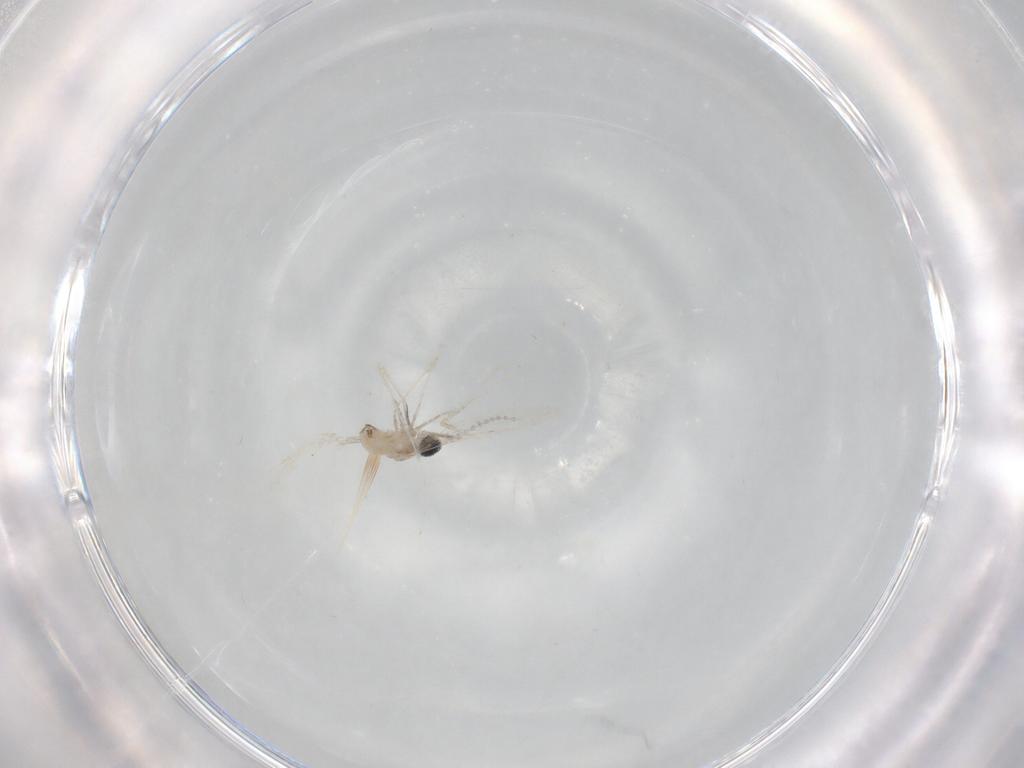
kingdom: Animalia
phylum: Arthropoda
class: Insecta
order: Diptera
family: Cecidomyiidae
